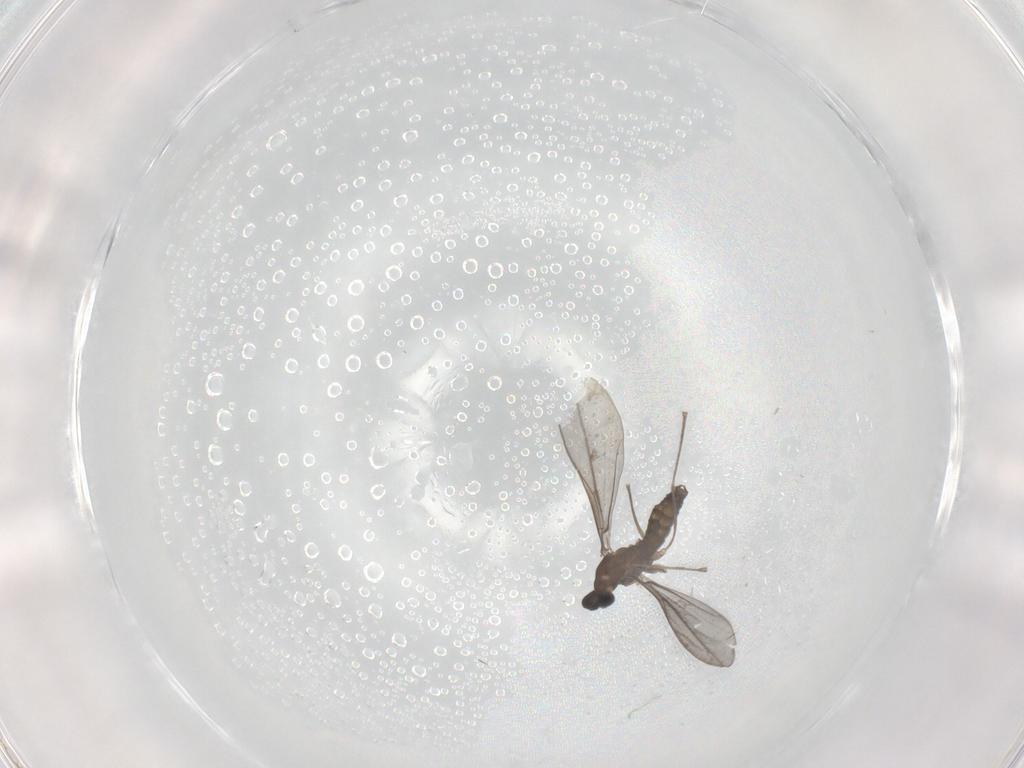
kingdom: Animalia
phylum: Arthropoda
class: Insecta
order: Diptera
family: Cecidomyiidae
